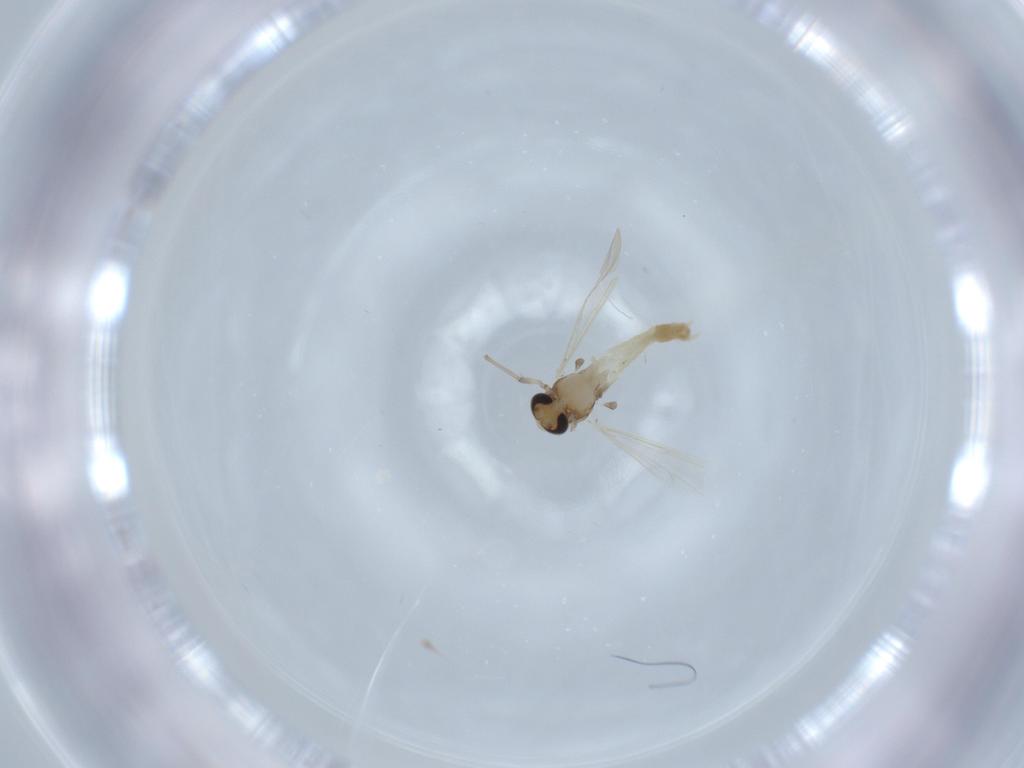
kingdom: Animalia
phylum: Arthropoda
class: Insecta
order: Diptera
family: Chironomidae
